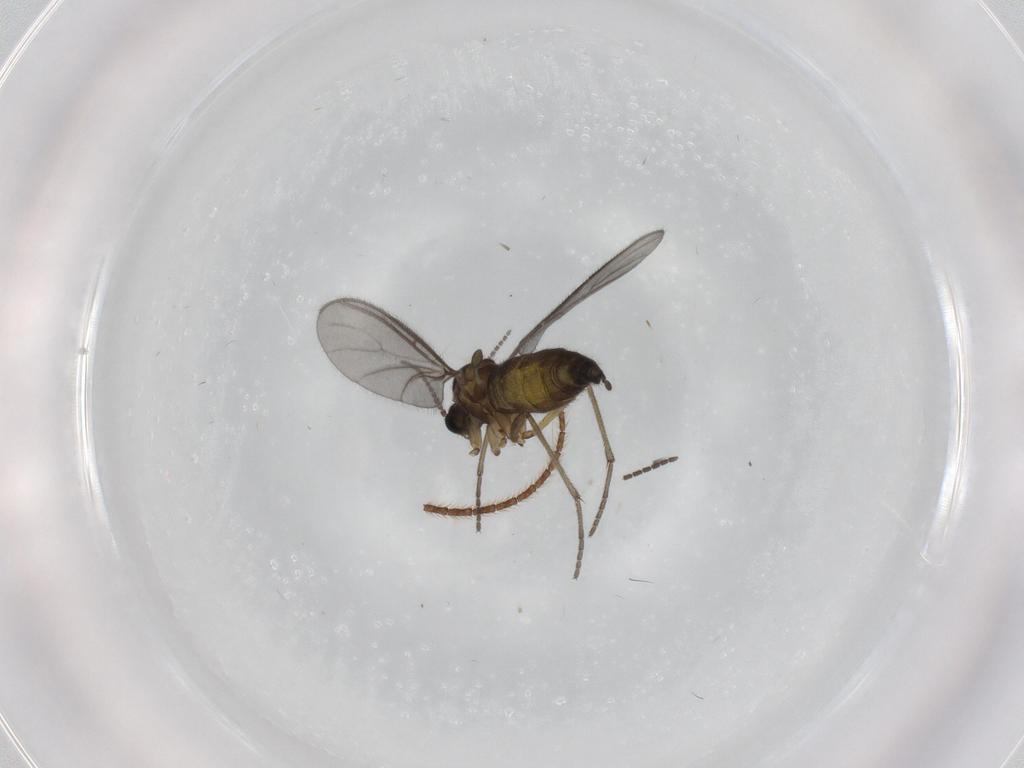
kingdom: Animalia
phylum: Arthropoda
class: Insecta
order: Diptera
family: Sciaridae
